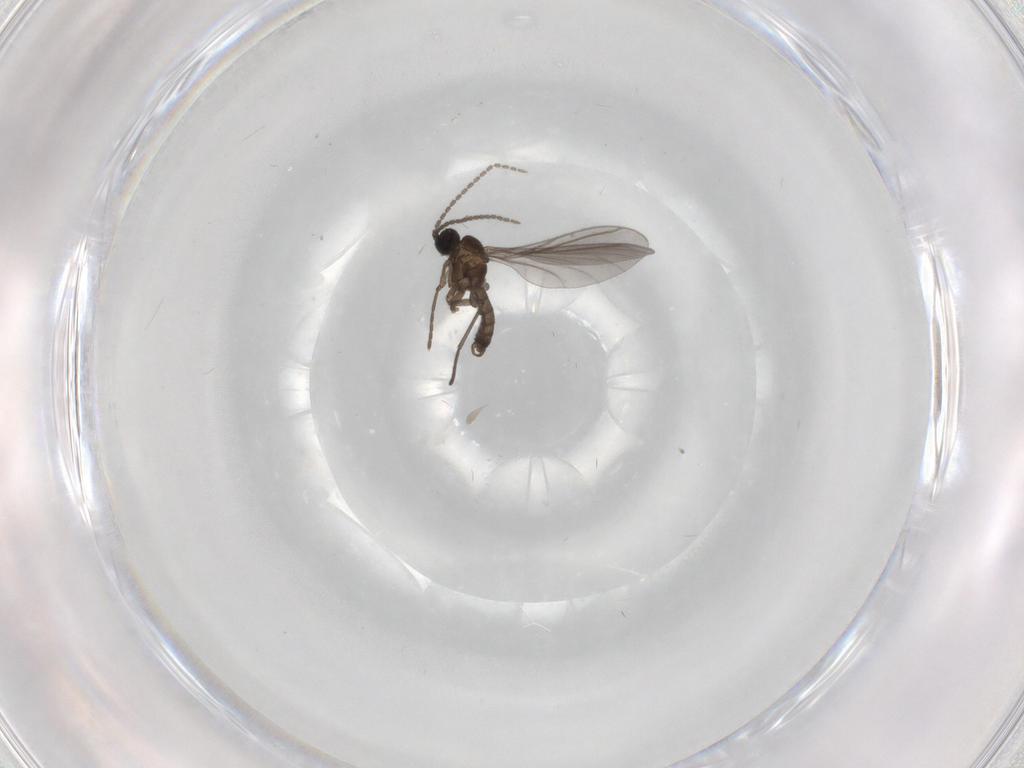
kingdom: Animalia
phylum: Arthropoda
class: Insecta
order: Diptera
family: Sciaridae
